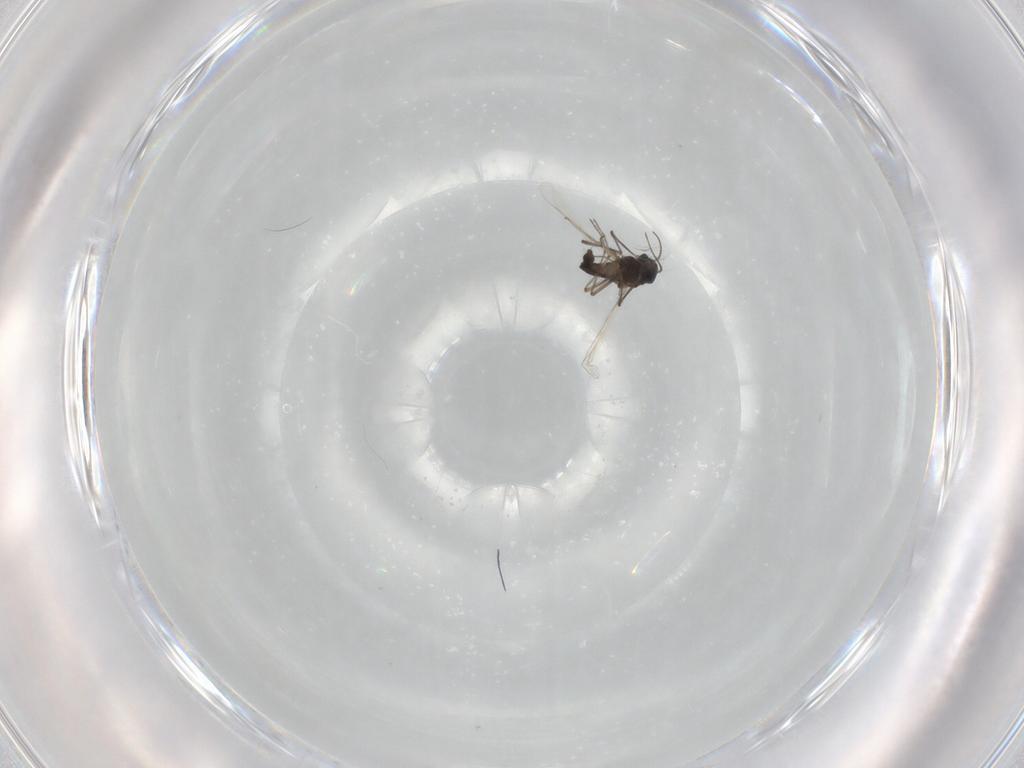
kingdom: Animalia
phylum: Arthropoda
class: Insecta
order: Diptera
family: Chironomidae
